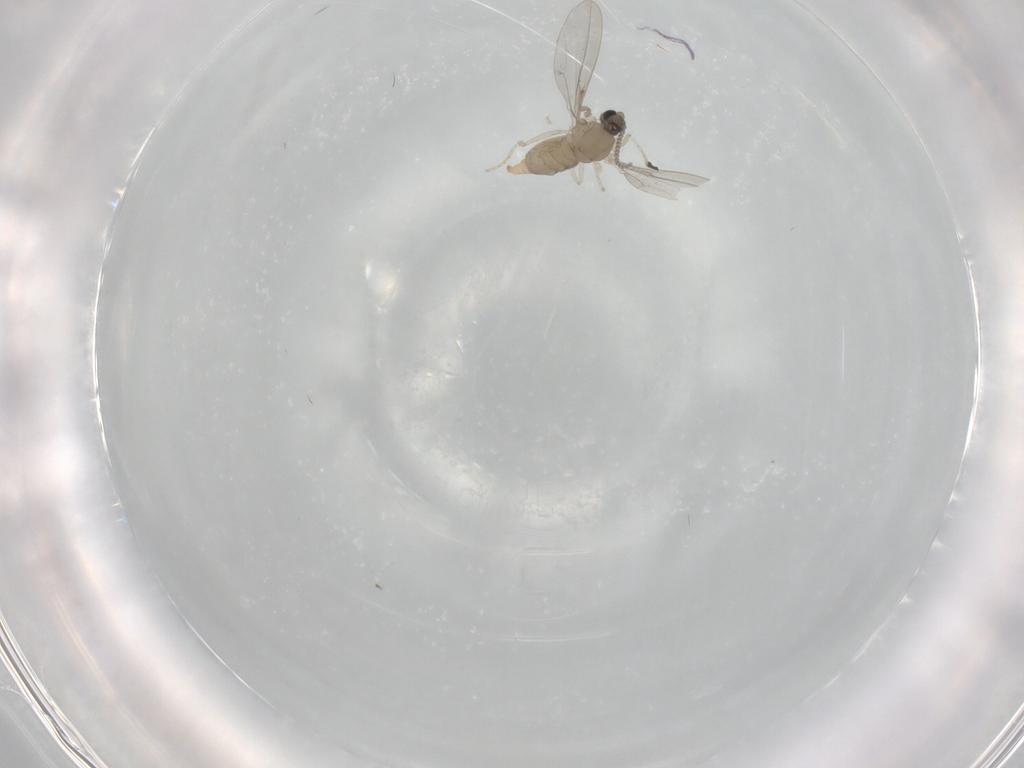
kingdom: Animalia
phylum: Arthropoda
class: Insecta
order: Diptera
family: Cecidomyiidae
